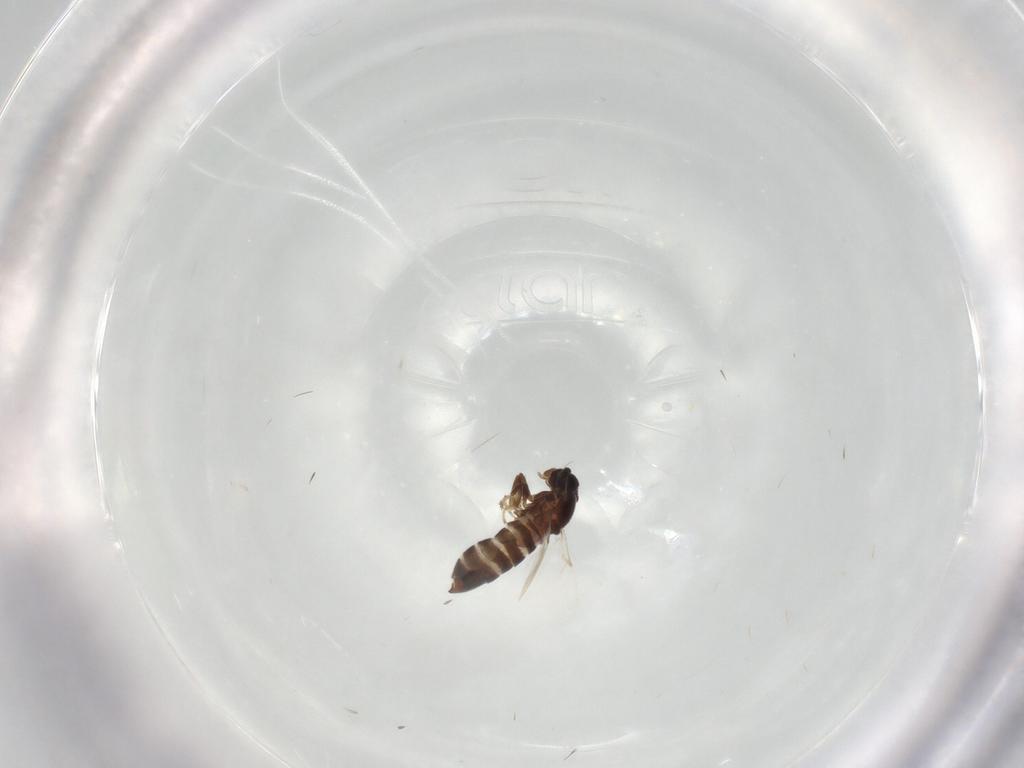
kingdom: Animalia
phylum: Arthropoda
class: Insecta
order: Diptera
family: Scatopsidae
